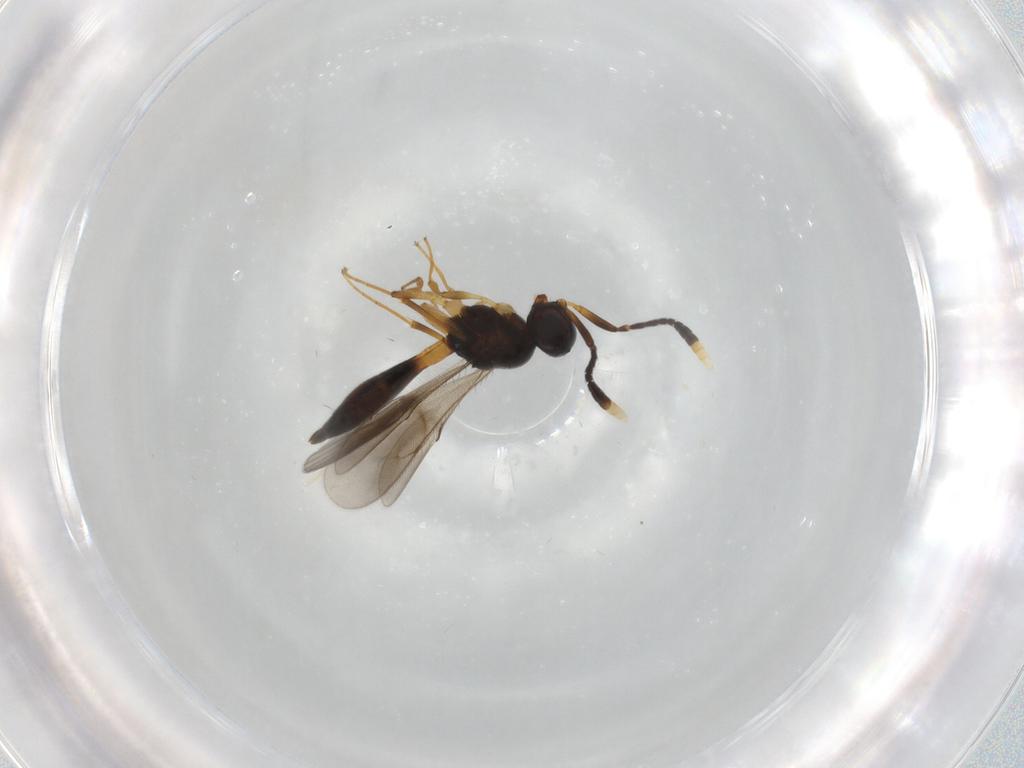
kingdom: Animalia
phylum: Arthropoda
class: Insecta
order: Hymenoptera
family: Scelionidae
